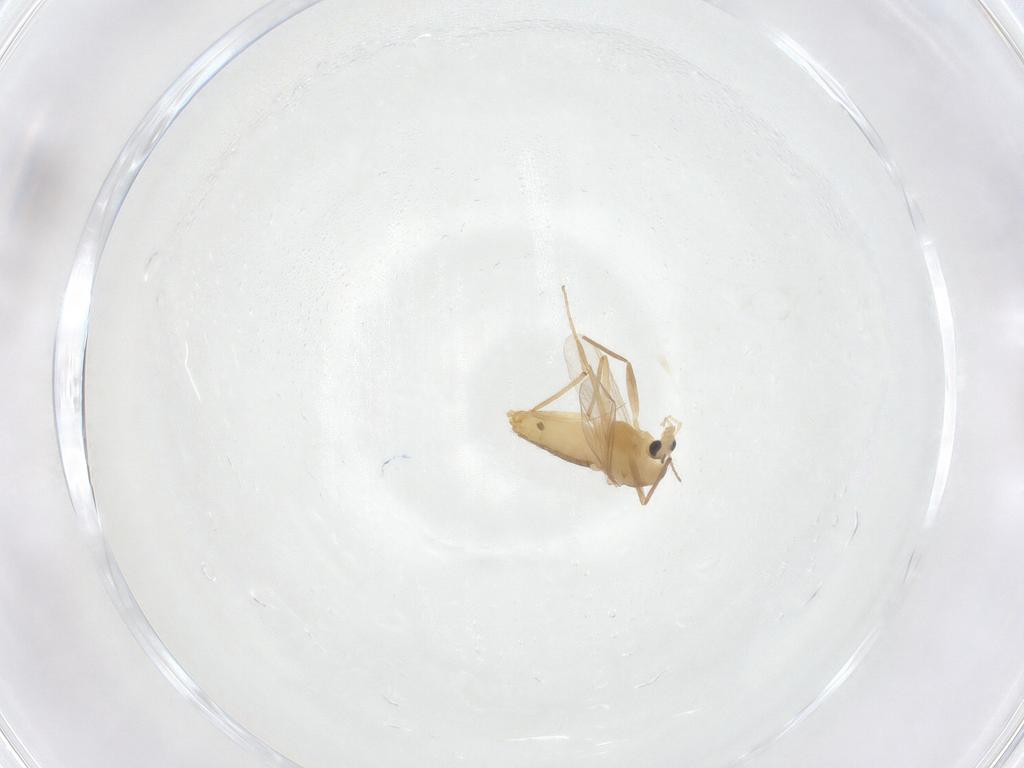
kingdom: Animalia
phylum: Arthropoda
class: Insecta
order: Diptera
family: Chironomidae
